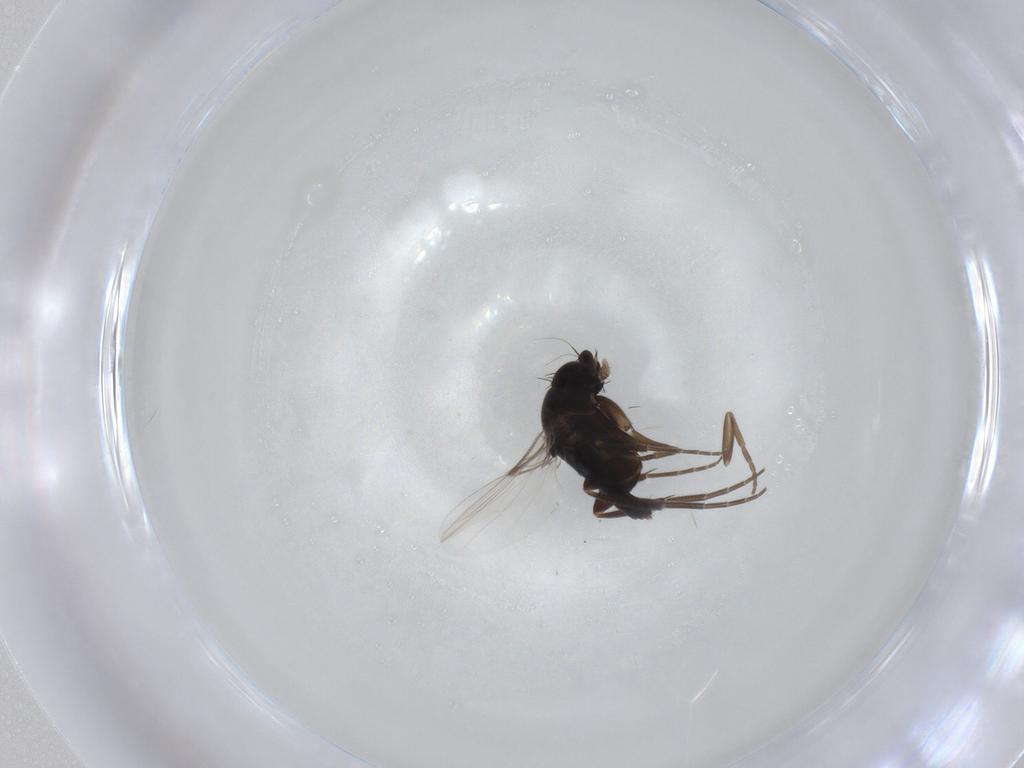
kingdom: Animalia
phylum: Arthropoda
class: Insecta
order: Diptera
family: Phoridae
